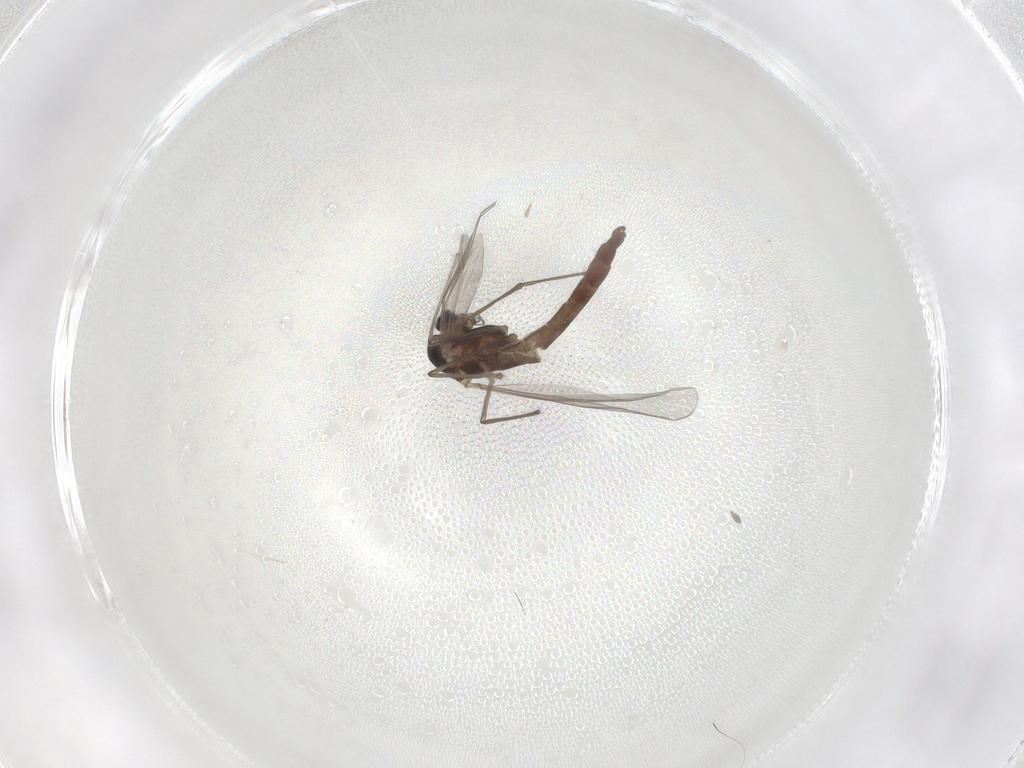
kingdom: Animalia
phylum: Arthropoda
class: Insecta
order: Diptera
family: Chironomidae
